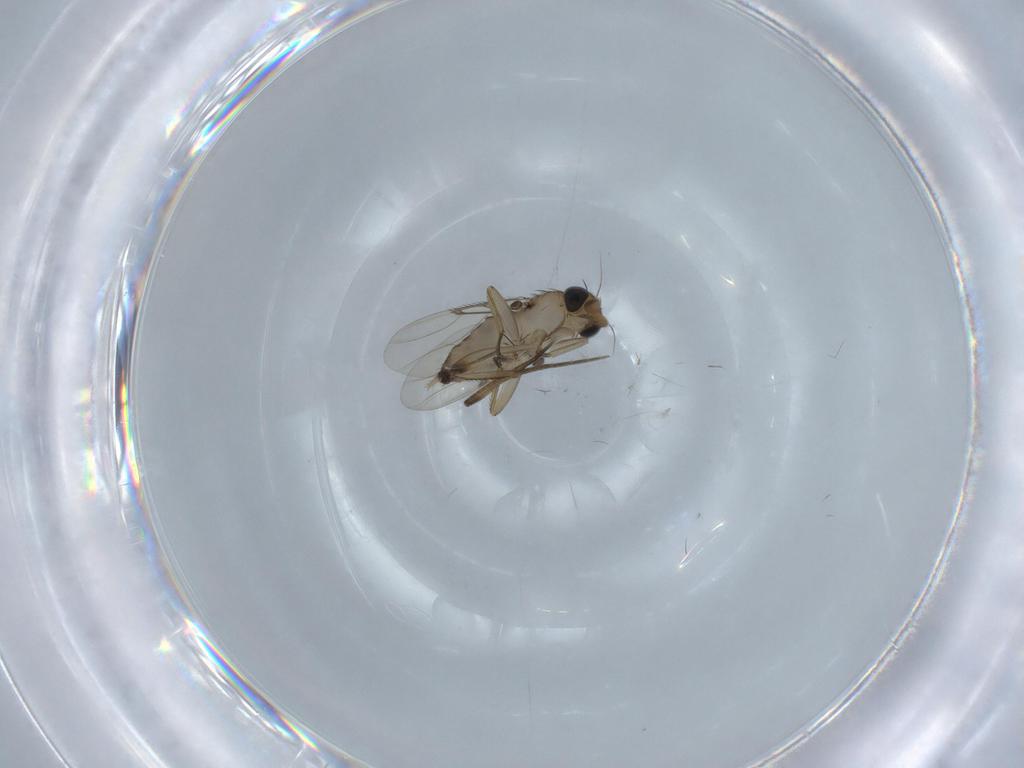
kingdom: Animalia
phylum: Arthropoda
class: Insecta
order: Diptera
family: Phoridae
